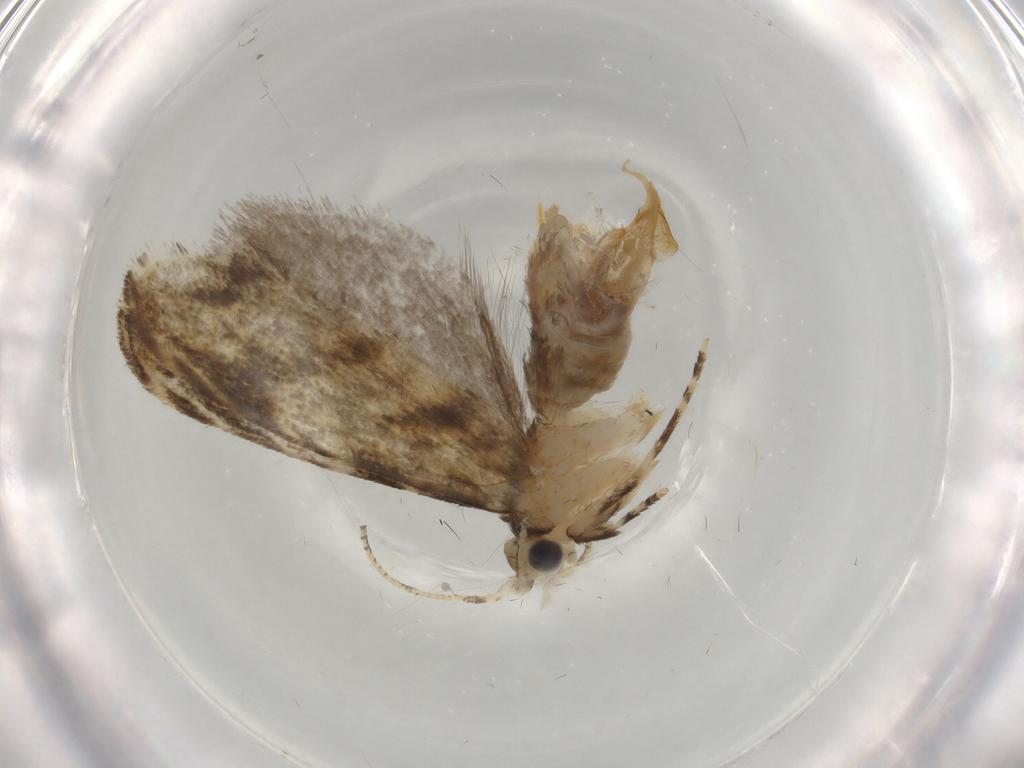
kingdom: Animalia
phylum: Arthropoda
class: Insecta
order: Lepidoptera
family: Tineidae
